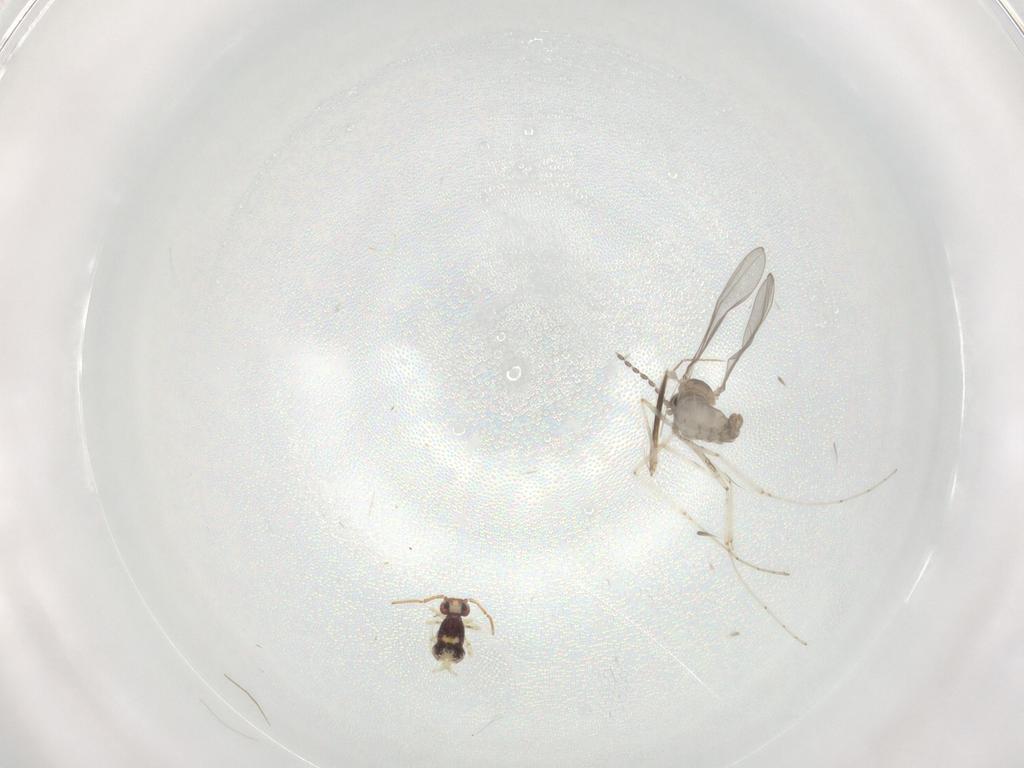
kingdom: Animalia
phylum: Arthropoda
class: Collembola
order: Symphypleona
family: Bourletiellidae
